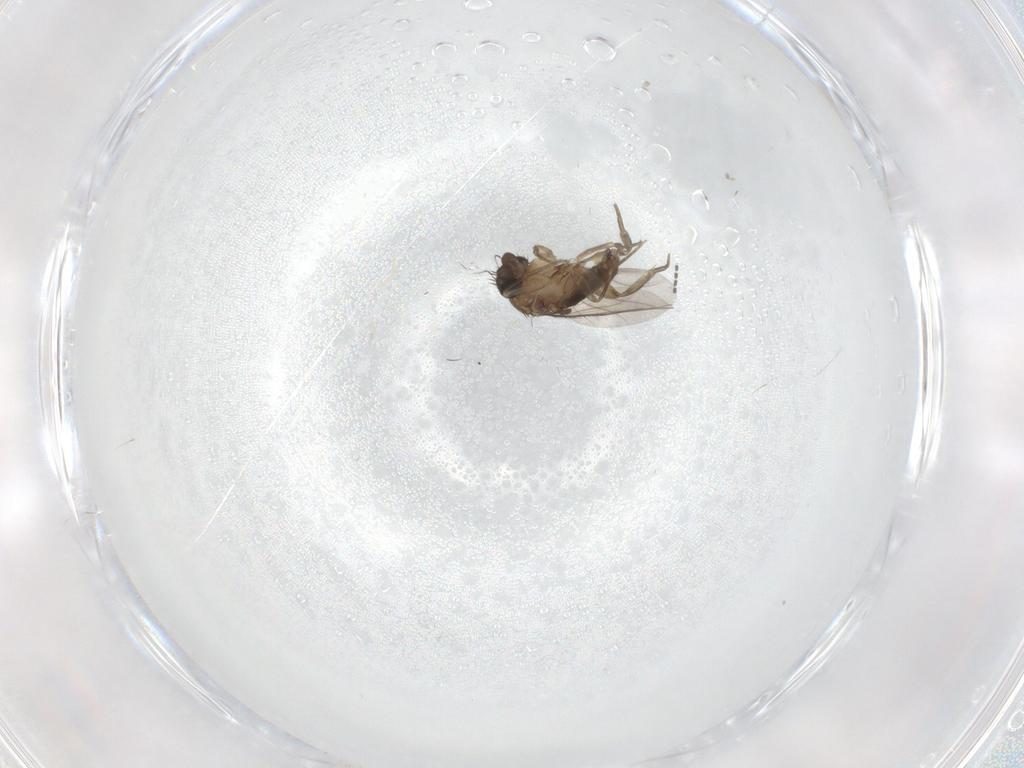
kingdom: Animalia
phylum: Arthropoda
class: Insecta
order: Diptera
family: Phoridae
